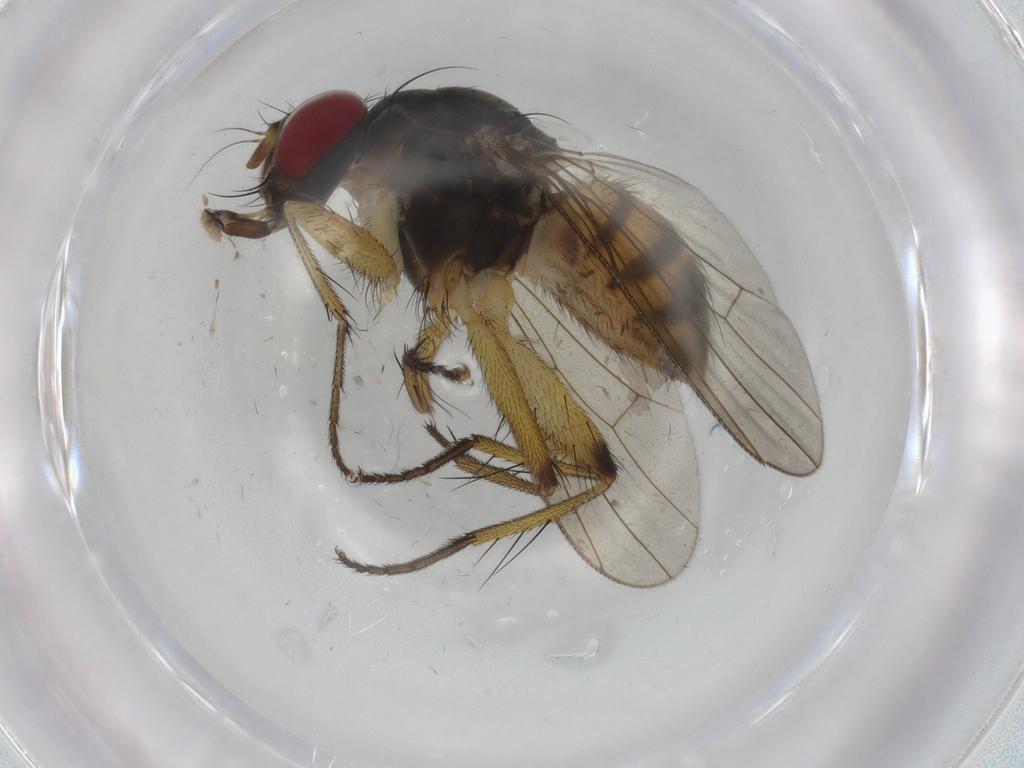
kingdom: Animalia
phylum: Arthropoda
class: Insecta
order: Diptera
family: Muscidae
